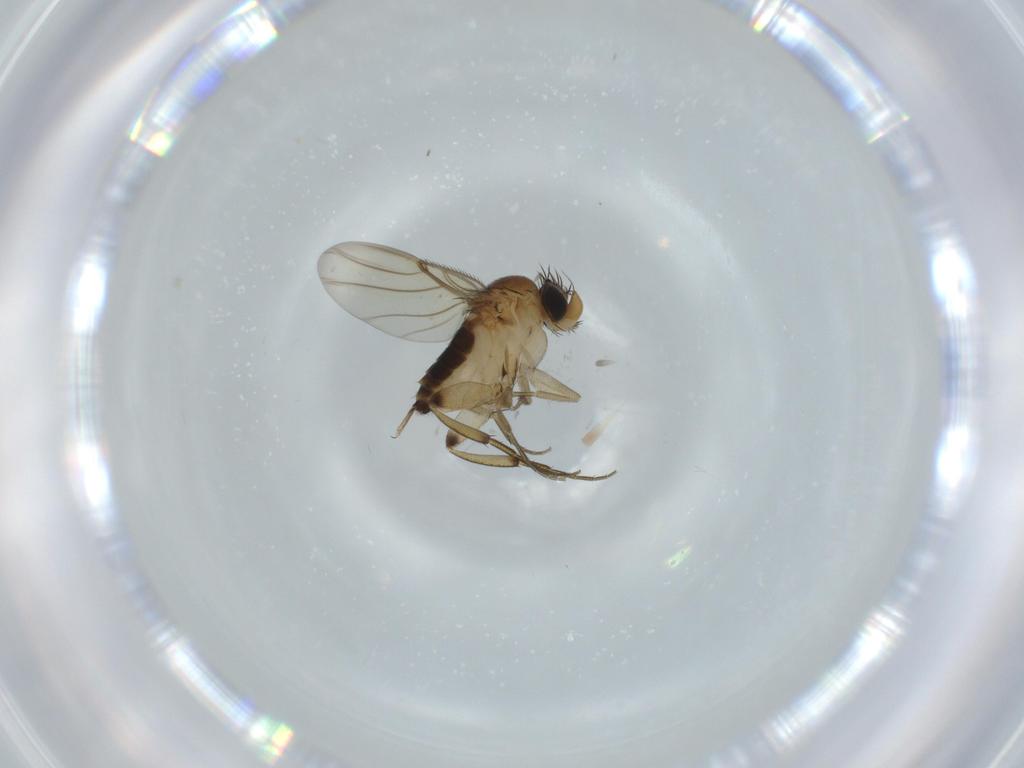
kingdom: Animalia
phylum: Arthropoda
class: Insecta
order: Diptera
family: Phoridae
